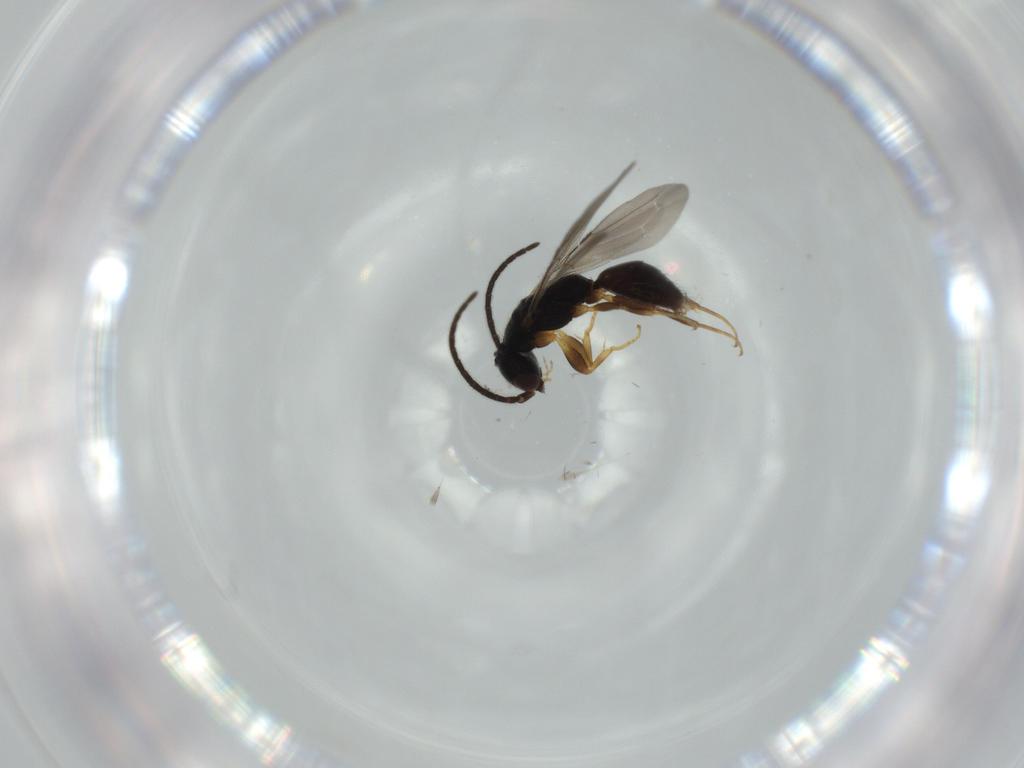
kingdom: Animalia
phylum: Arthropoda
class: Insecta
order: Hymenoptera
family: Bethylidae
